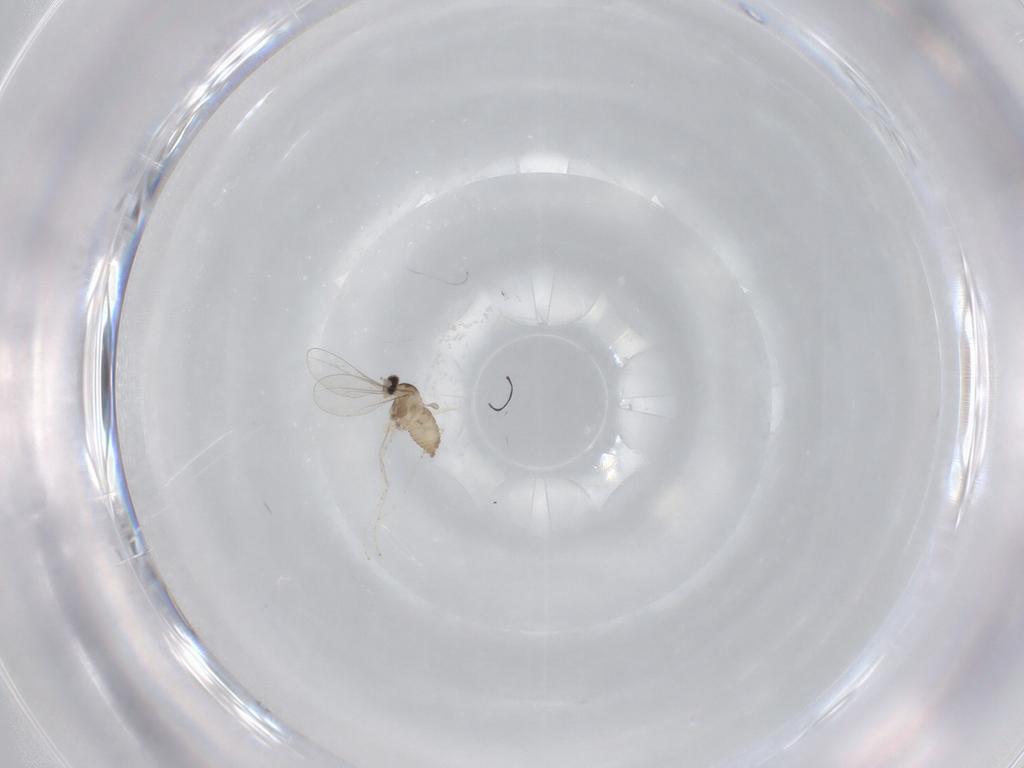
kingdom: Animalia
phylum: Arthropoda
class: Insecta
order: Diptera
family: Cecidomyiidae
